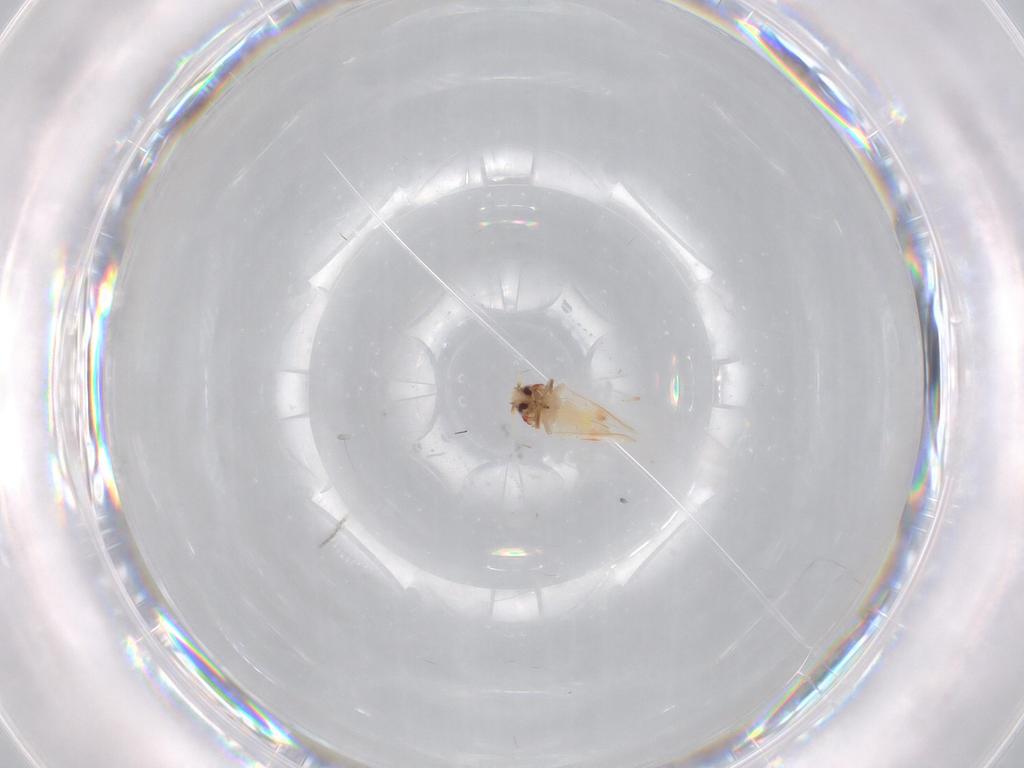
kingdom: Animalia
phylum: Arthropoda
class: Insecta
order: Hemiptera
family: Aleyrodidae
